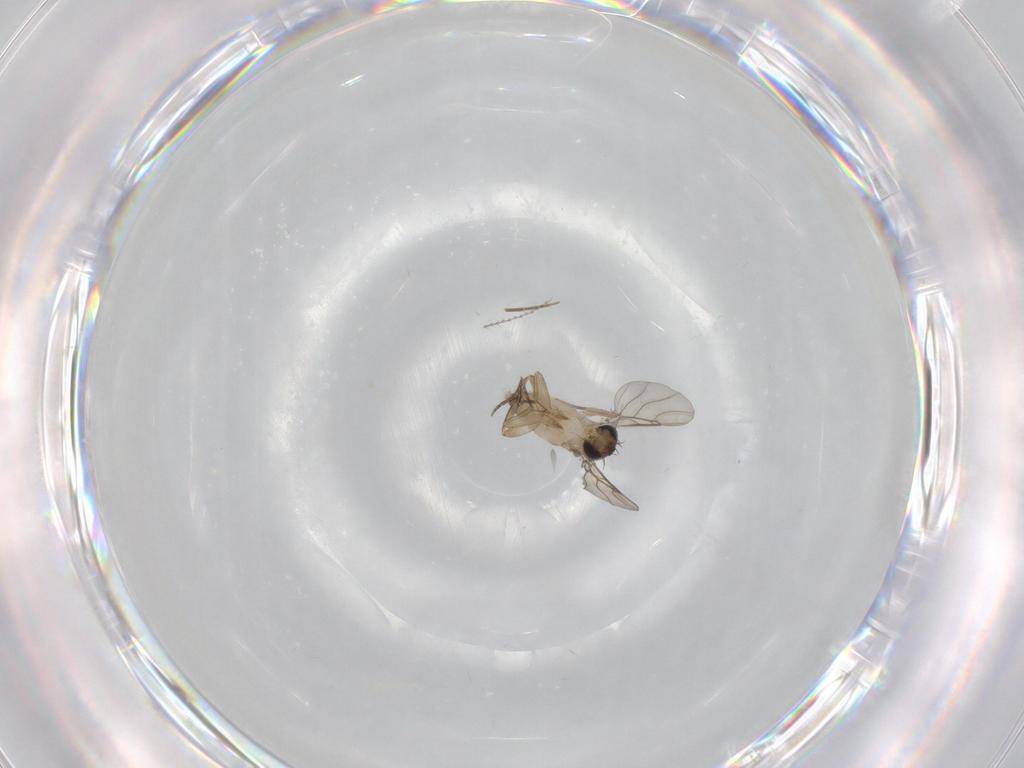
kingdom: Animalia
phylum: Arthropoda
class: Insecta
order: Diptera
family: Phoridae
